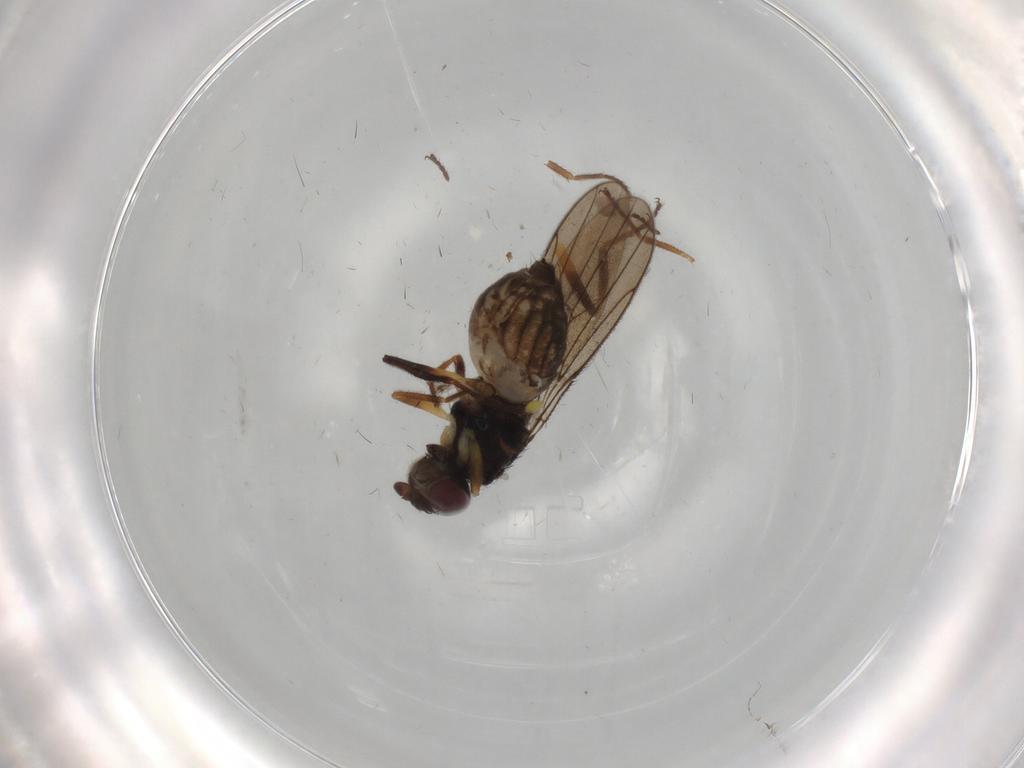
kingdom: Animalia
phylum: Arthropoda
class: Insecta
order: Diptera
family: Chloropidae
